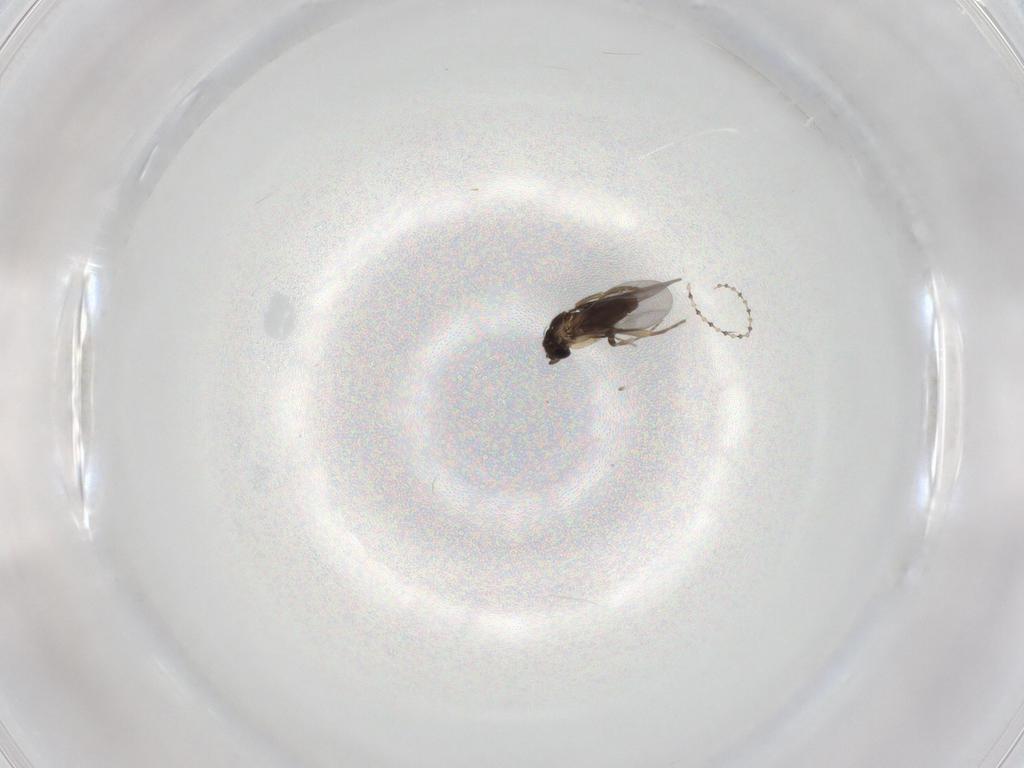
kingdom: Animalia
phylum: Arthropoda
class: Insecta
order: Diptera
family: Cecidomyiidae
